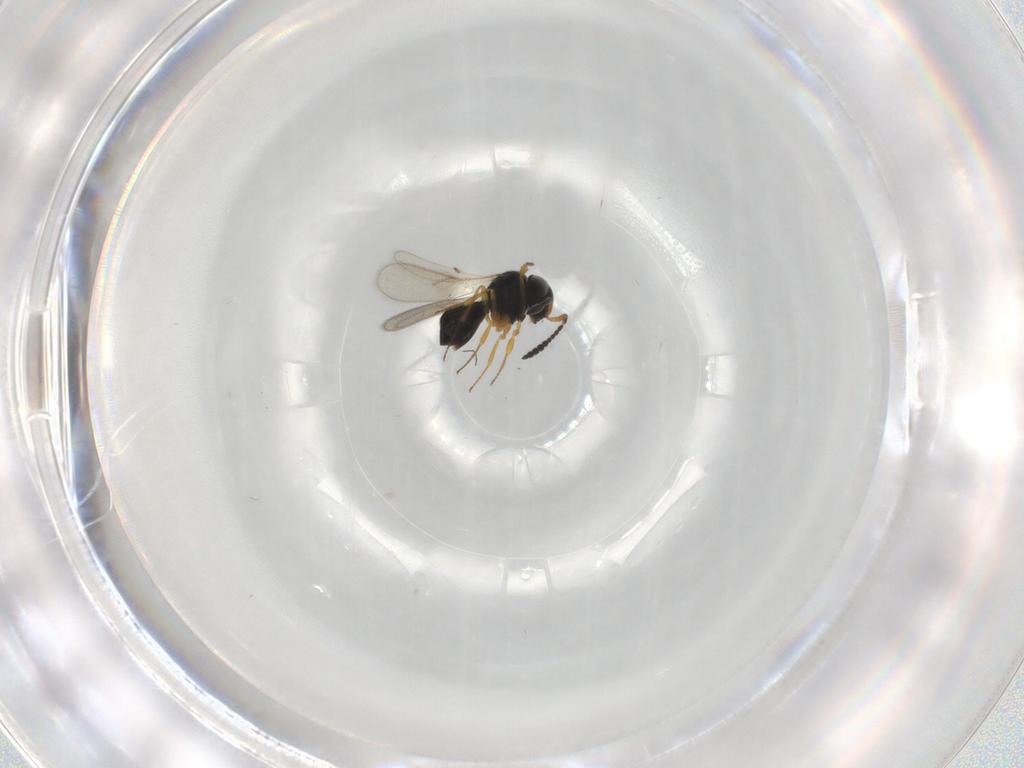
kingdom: Animalia
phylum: Arthropoda
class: Insecta
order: Hymenoptera
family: Scelionidae
